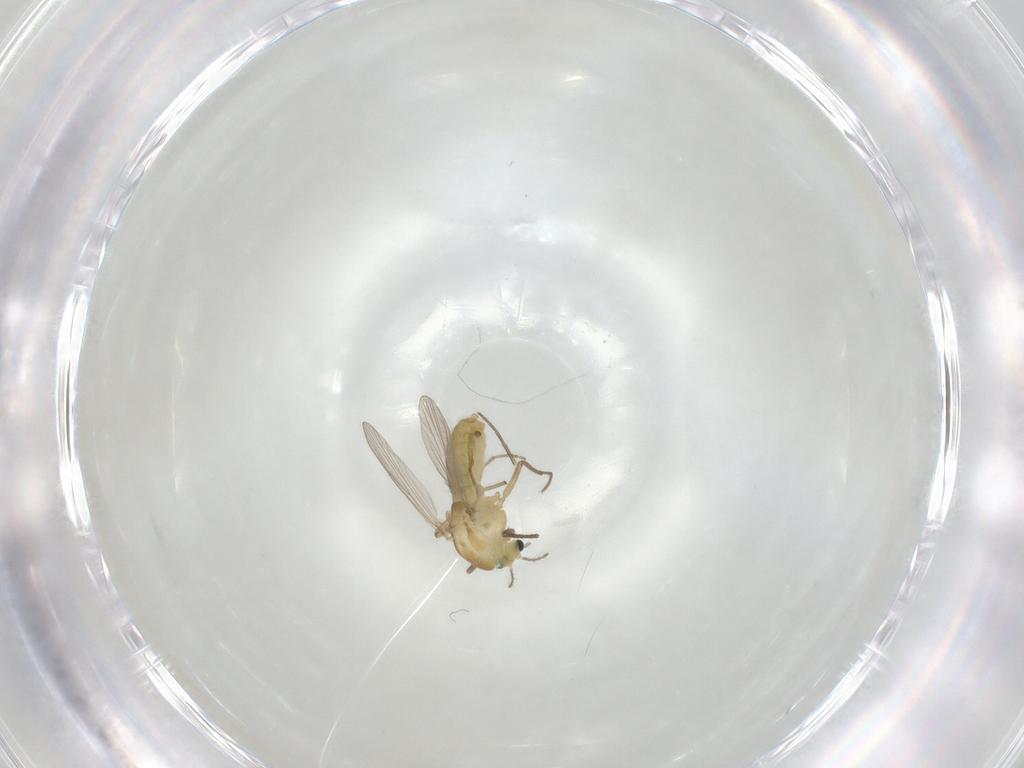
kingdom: Animalia
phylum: Arthropoda
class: Insecta
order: Diptera
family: Chironomidae
